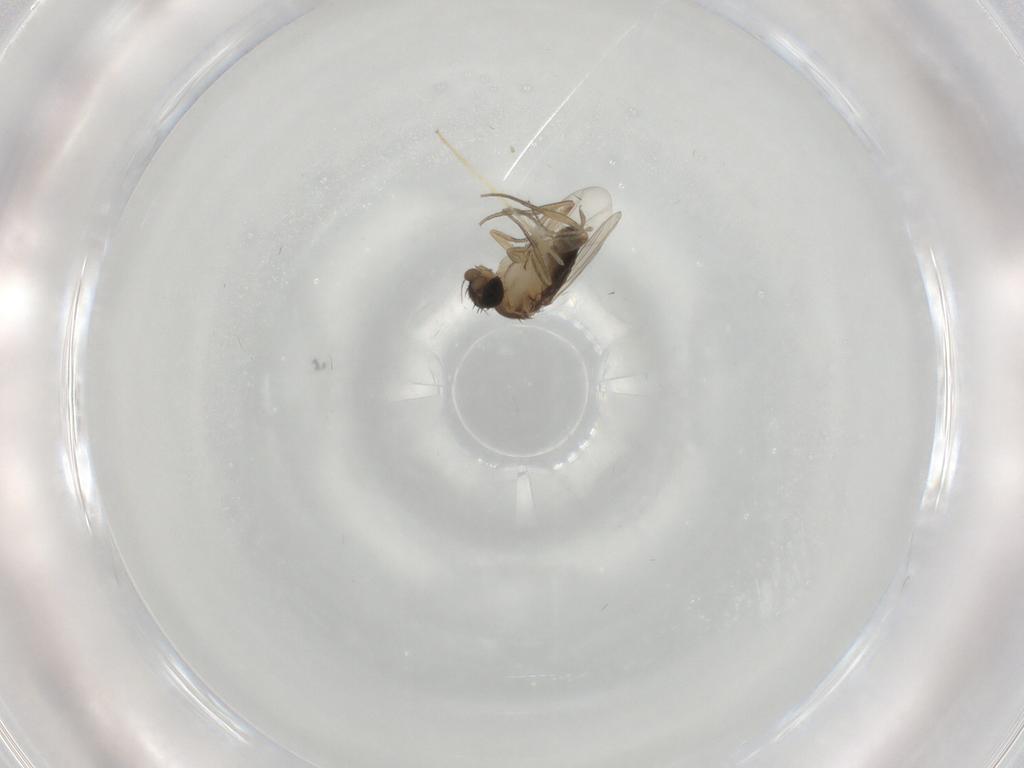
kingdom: Animalia
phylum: Arthropoda
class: Insecta
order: Diptera
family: Chironomidae
